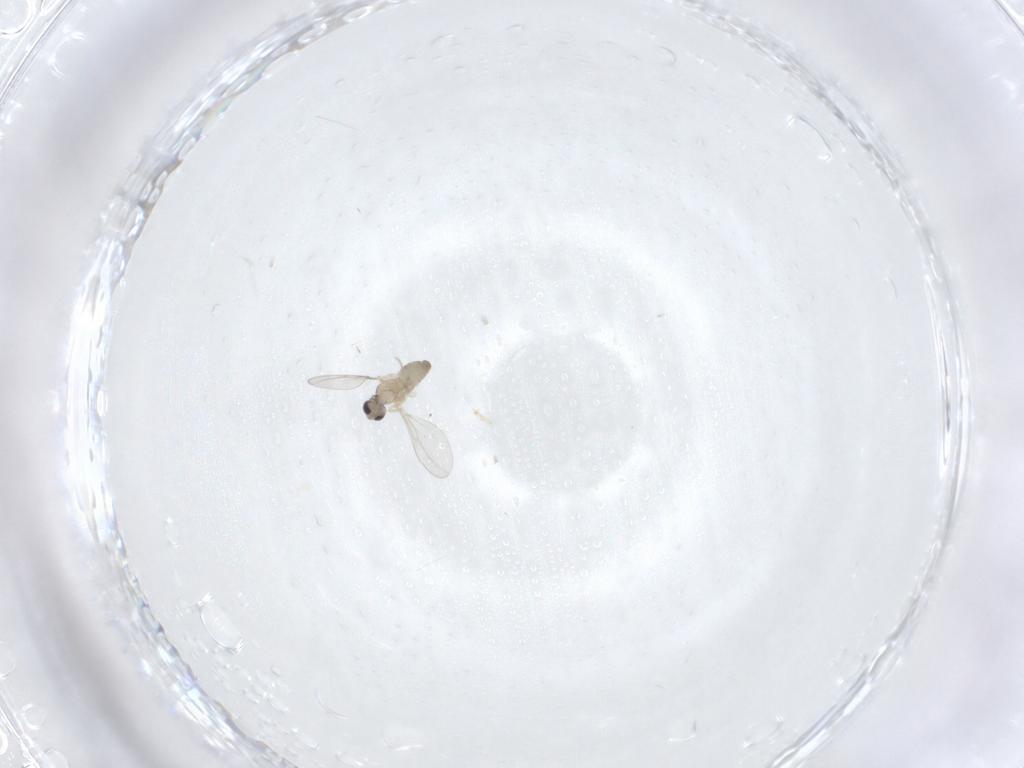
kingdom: Animalia
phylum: Arthropoda
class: Insecta
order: Diptera
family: Cecidomyiidae
